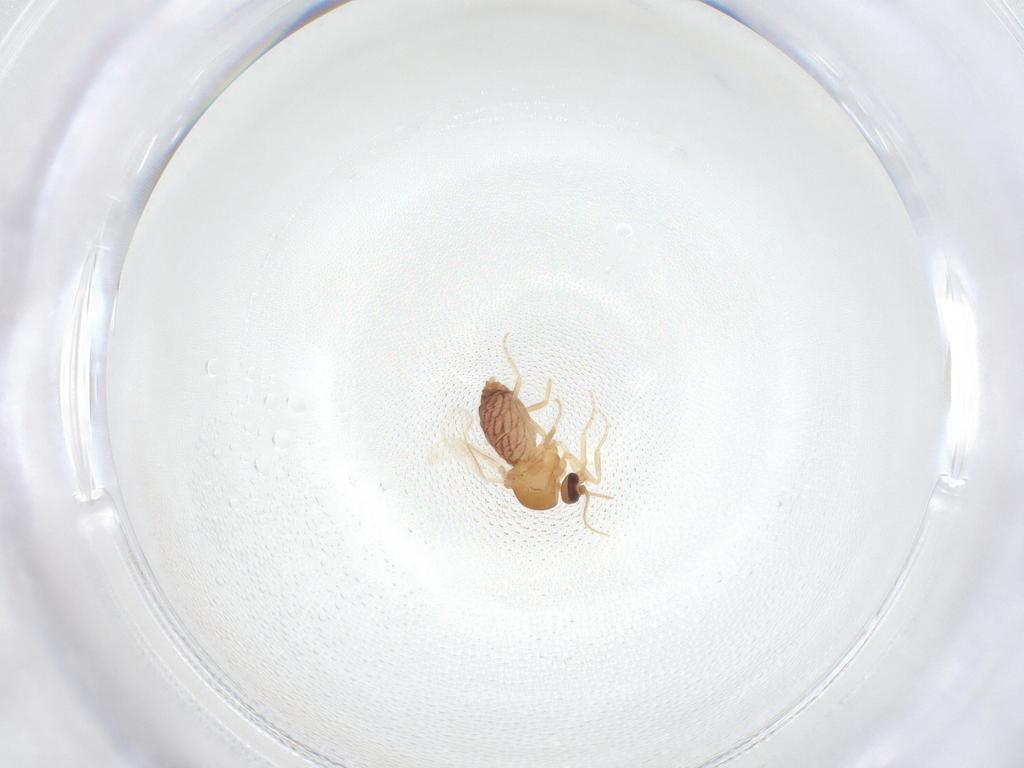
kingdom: Animalia
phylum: Arthropoda
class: Insecta
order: Diptera
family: Ceratopogonidae
